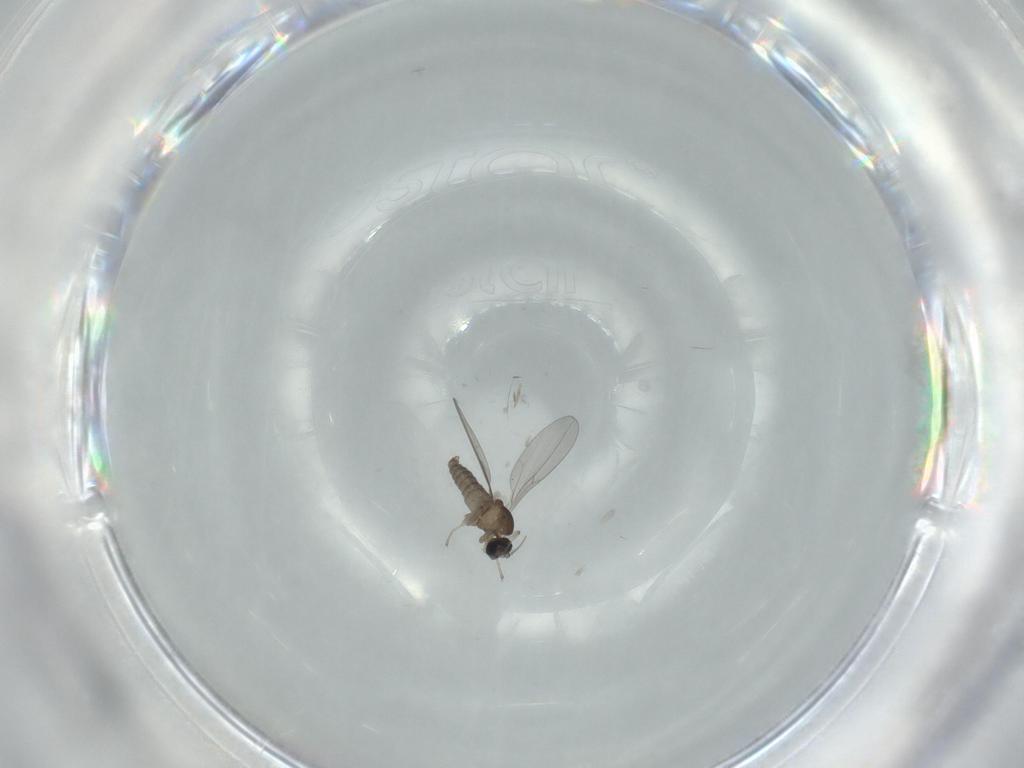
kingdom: Animalia
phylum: Arthropoda
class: Insecta
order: Diptera
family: Cecidomyiidae
